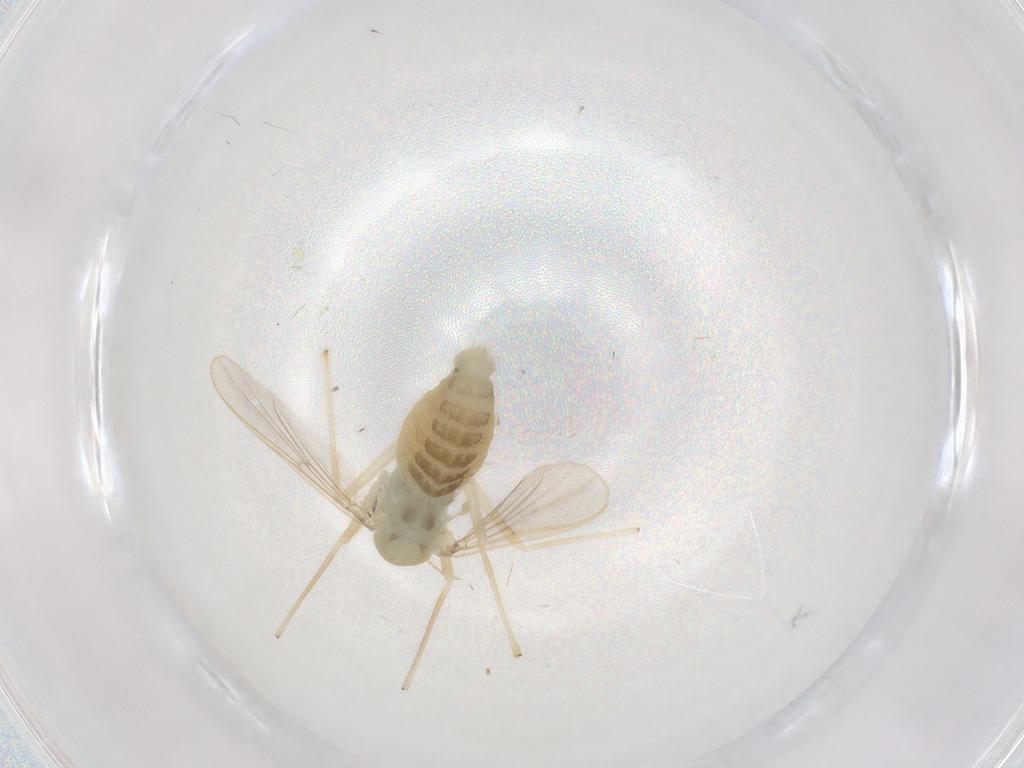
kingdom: Animalia
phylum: Arthropoda
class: Insecta
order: Diptera
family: Chironomidae
